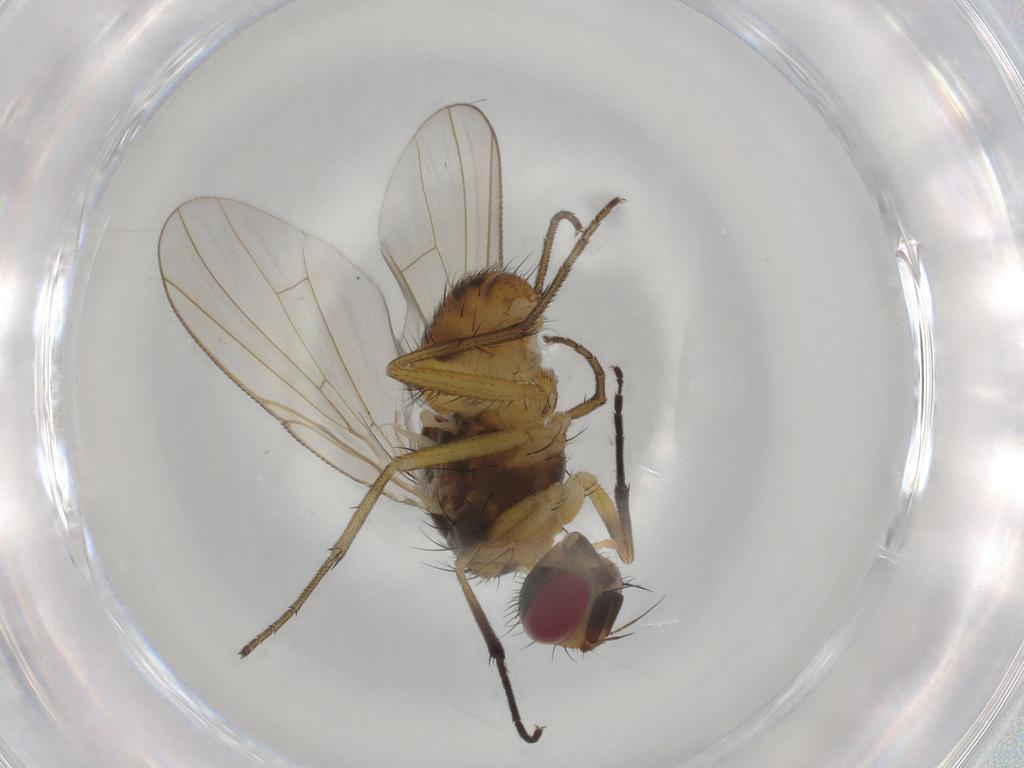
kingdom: Animalia
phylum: Arthropoda
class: Insecta
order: Diptera
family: Muscidae
